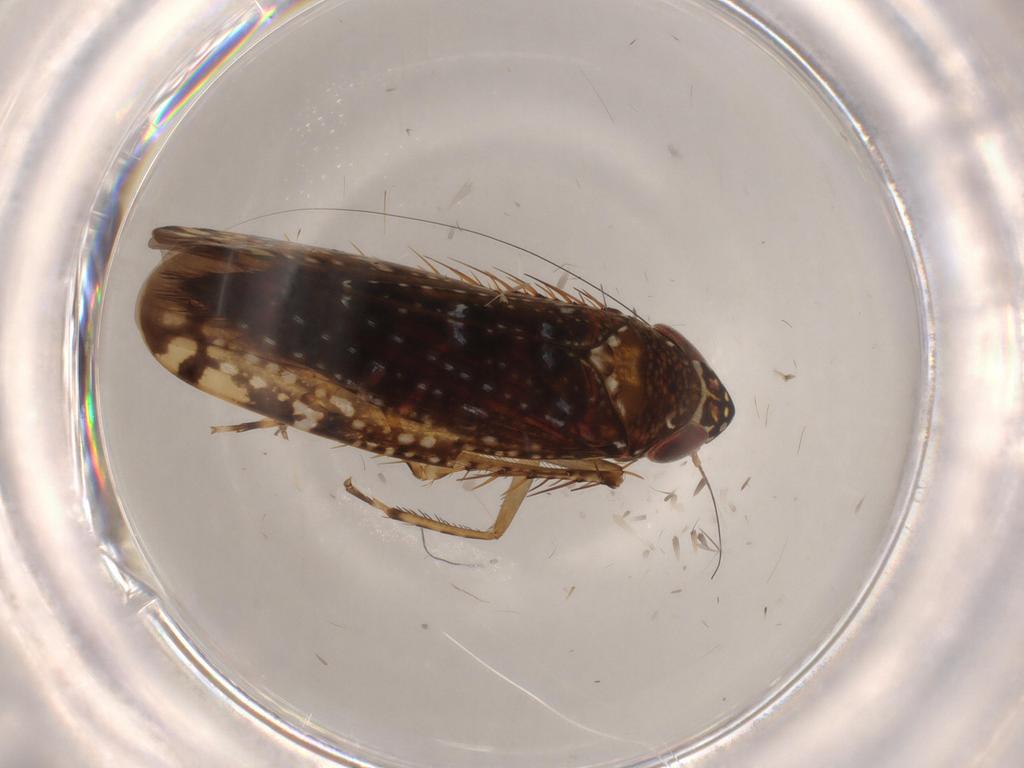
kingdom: Animalia
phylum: Arthropoda
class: Insecta
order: Hemiptera
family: Cicadellidae
